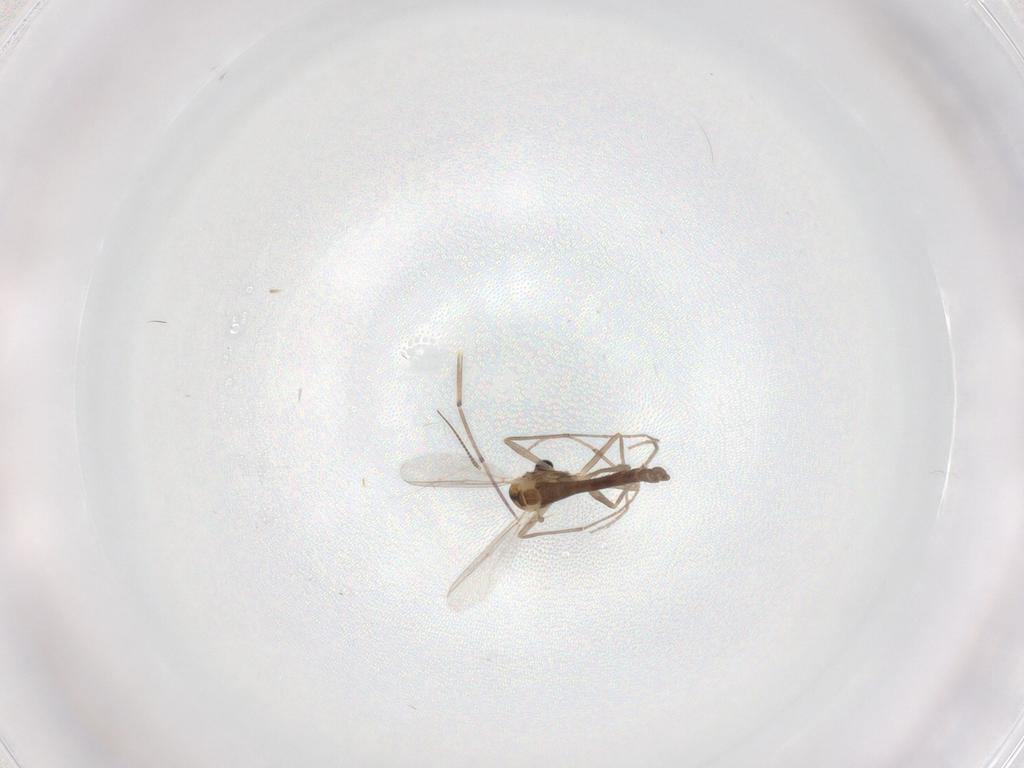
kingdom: Animalia
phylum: Arthropoda
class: Insecta
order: Diptera
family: Chironomidae
